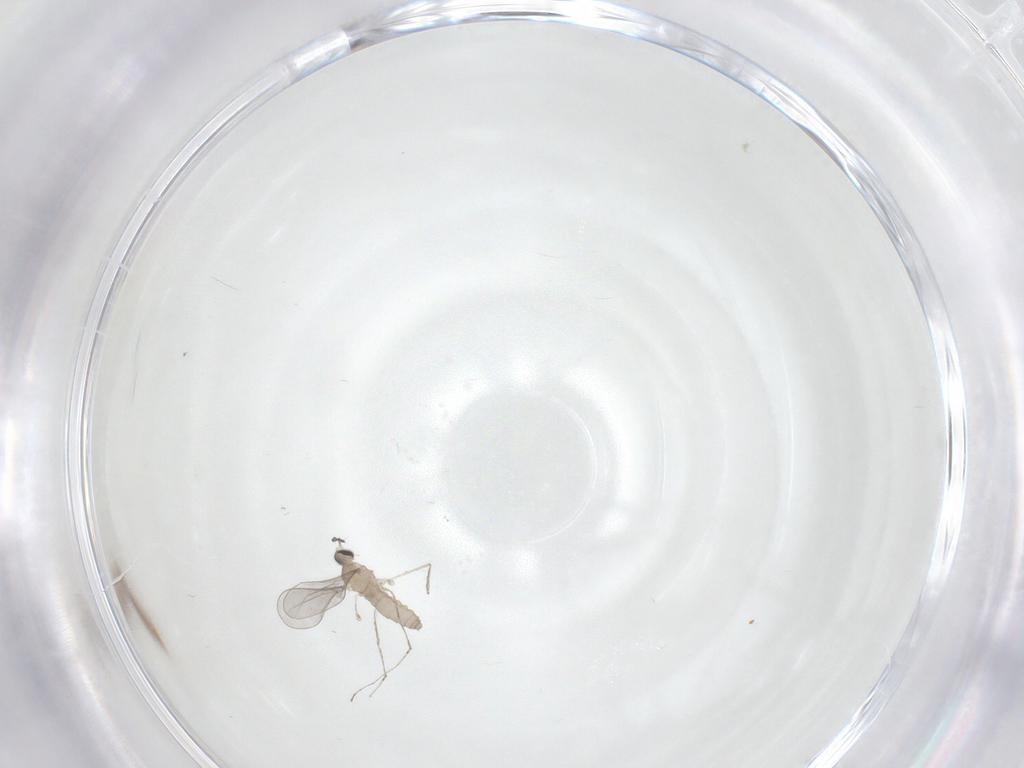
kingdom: Animalia
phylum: Arthropoda
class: Insecta
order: Diptera
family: Cecidomyiidae
